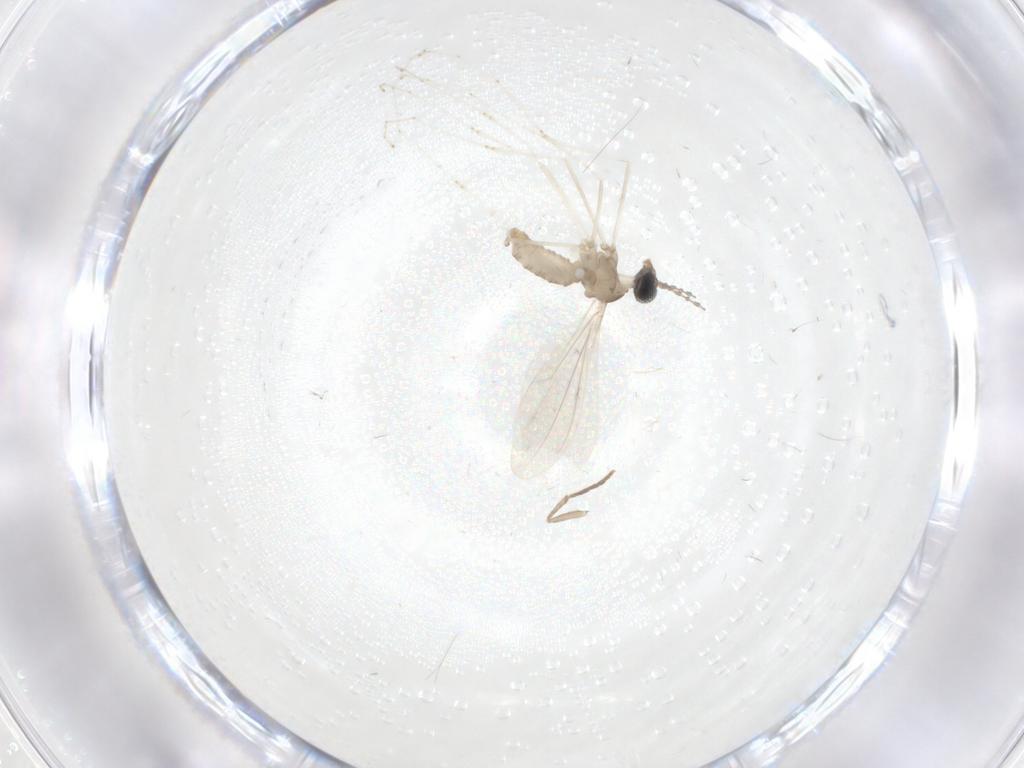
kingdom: Animalia
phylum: Arthropoda
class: Insecta
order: Diptera
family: Cecidomyiidae
